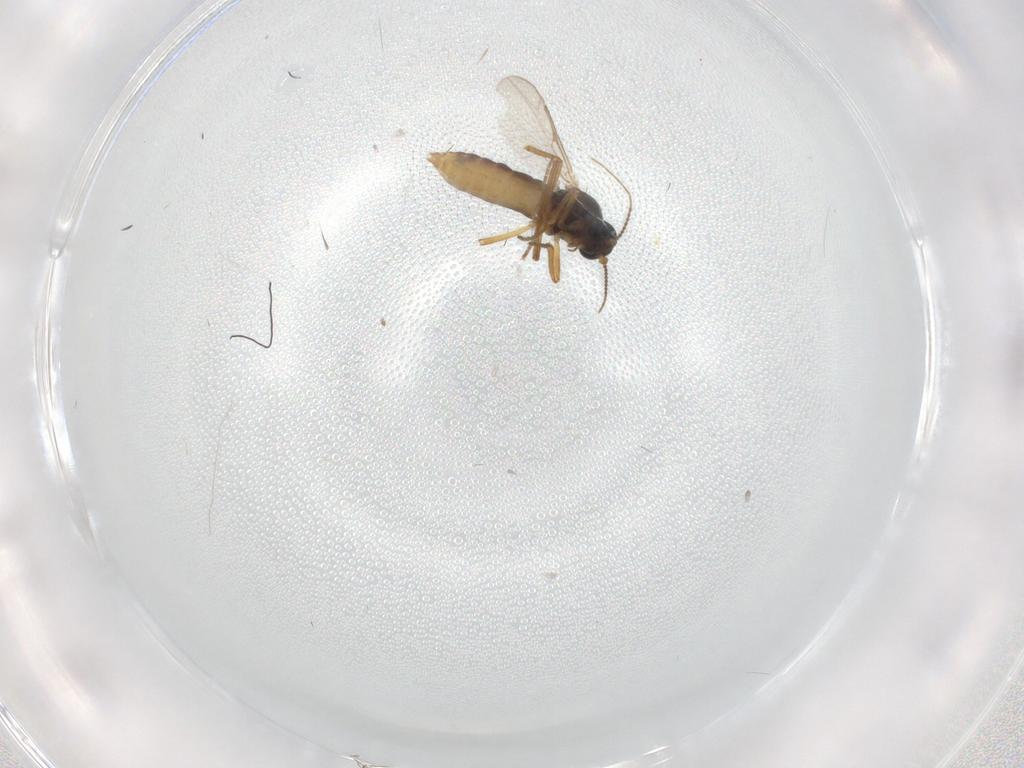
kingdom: Animalia
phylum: Arthropoda
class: Insecta
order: Diptera
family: Ceratopogonidae
